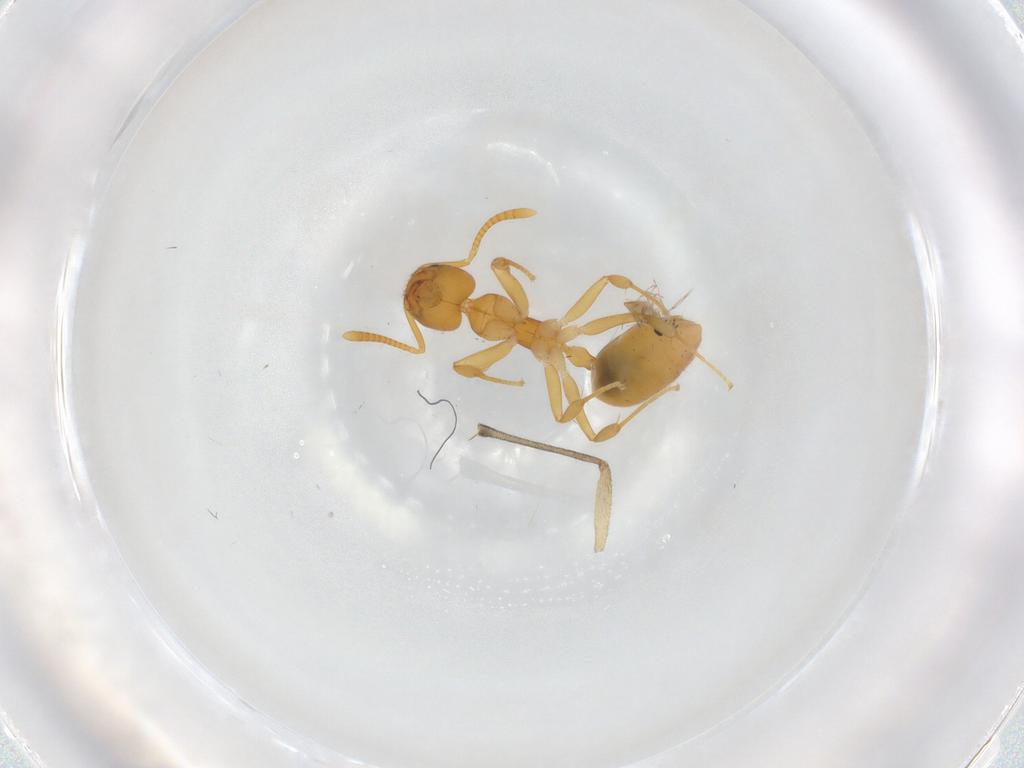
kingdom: Animalia
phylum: Arthropoda
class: Insecta
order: Hymenoptera
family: Formicidae
